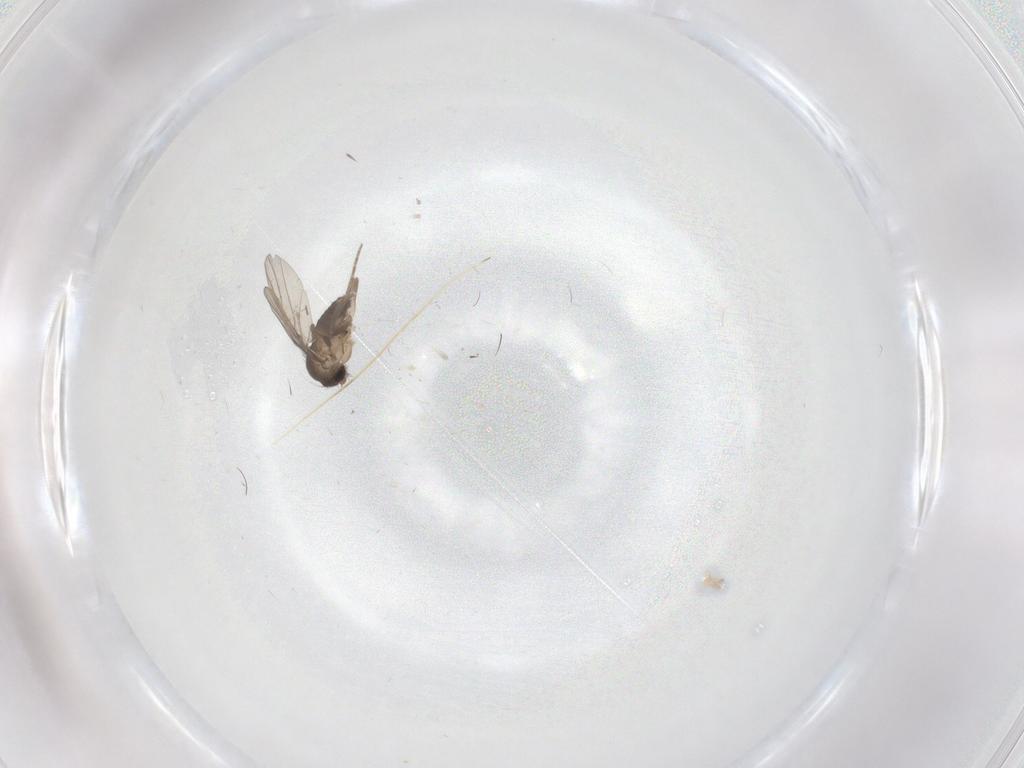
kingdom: Animalia
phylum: Arthropoda
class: Insecta
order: Diptera
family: Phoridae
